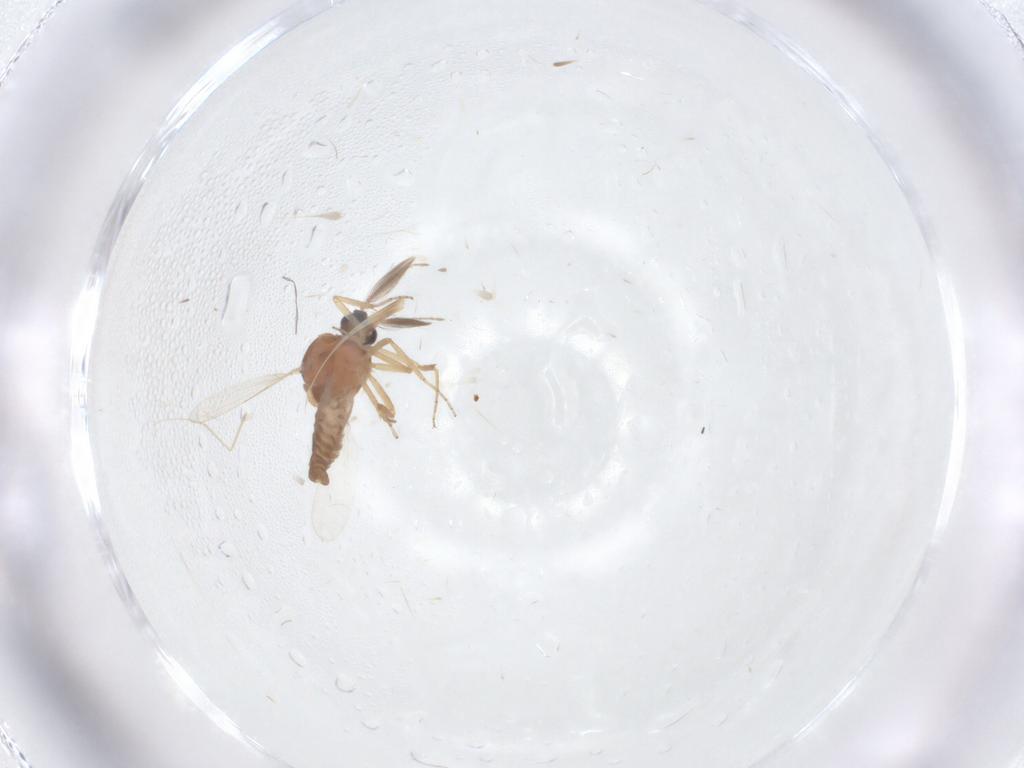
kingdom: Animalia
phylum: Arthropoda
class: Insecta
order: Diptera
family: Ceratopogonidae
